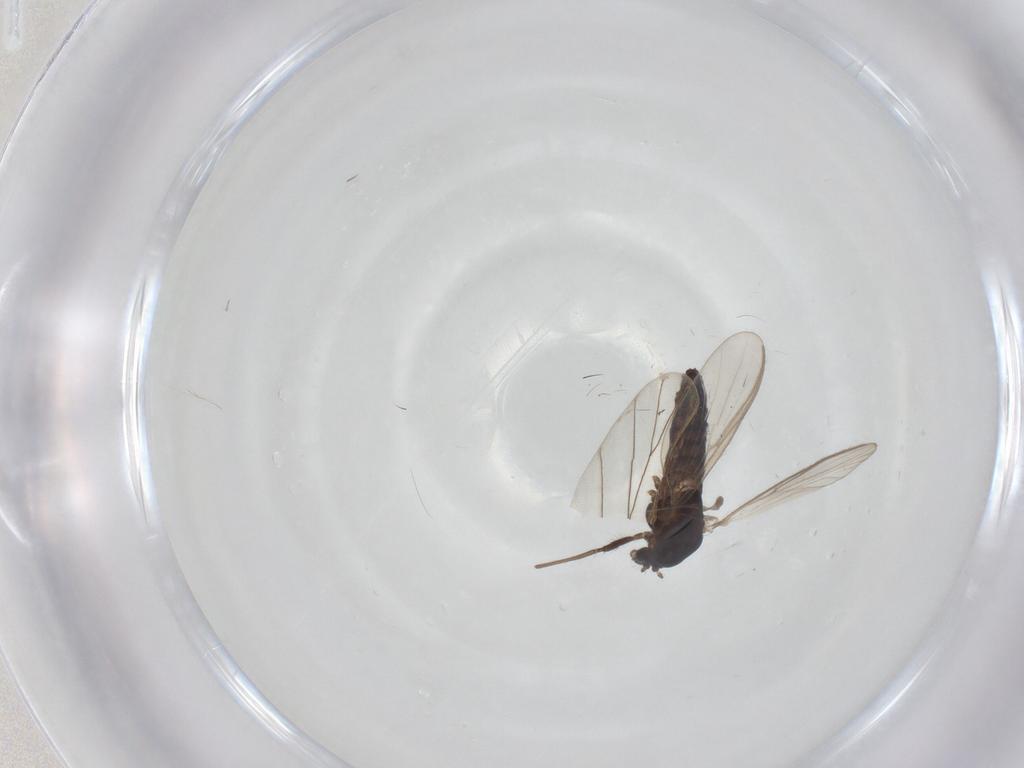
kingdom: Animalia
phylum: Arthropoda
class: Insecta
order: Diptera
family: Chironomidae
